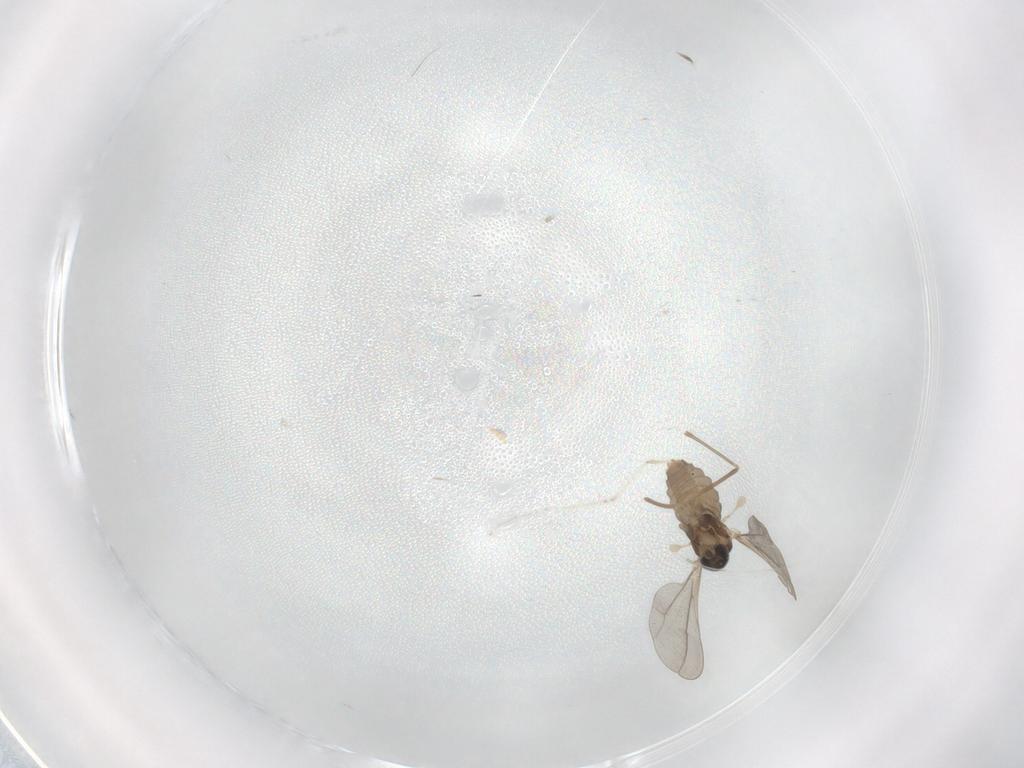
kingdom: Animalia
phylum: Arthropoda
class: Insecta
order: Diptera
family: Cecidomyiidae
